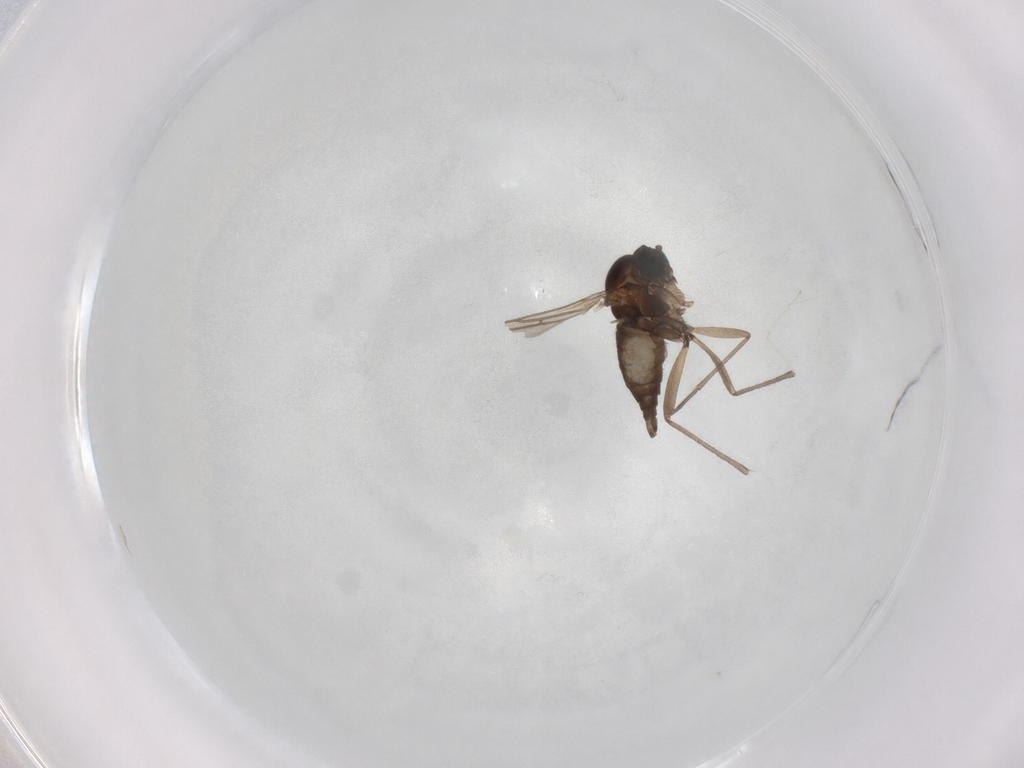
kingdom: Animalia
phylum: Arthropoda
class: Insecta
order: Diptera
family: Sciaridae
